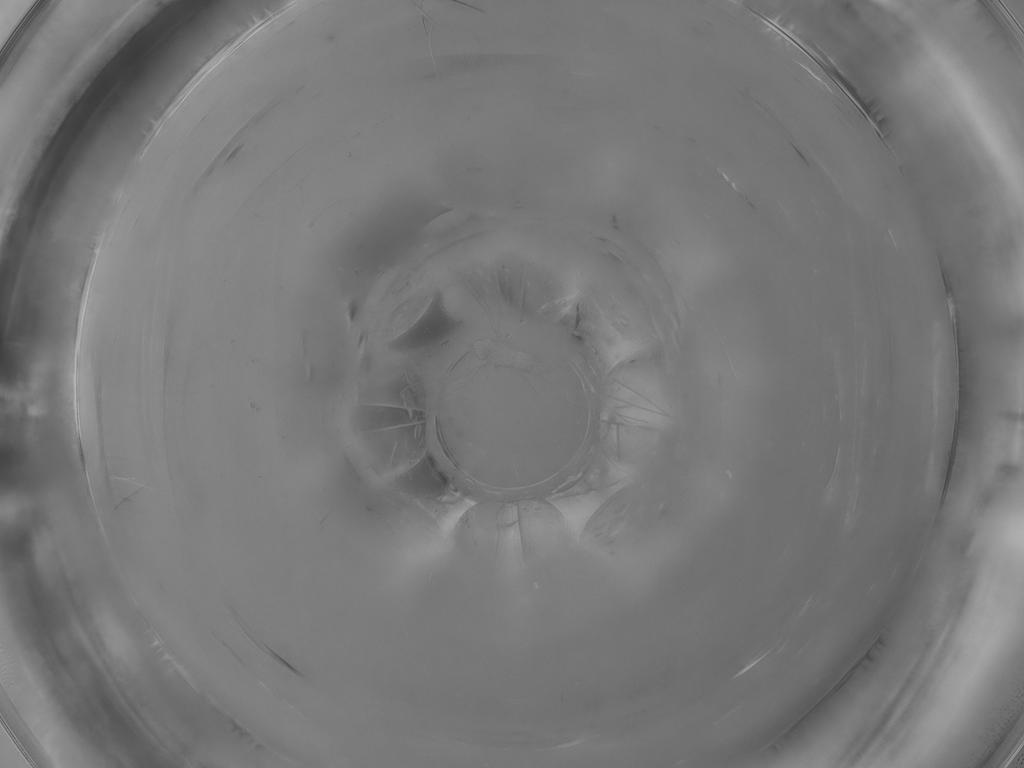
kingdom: Animalia
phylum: Arthropoda
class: Insecta
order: Diptera
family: Cecidomyiidae
